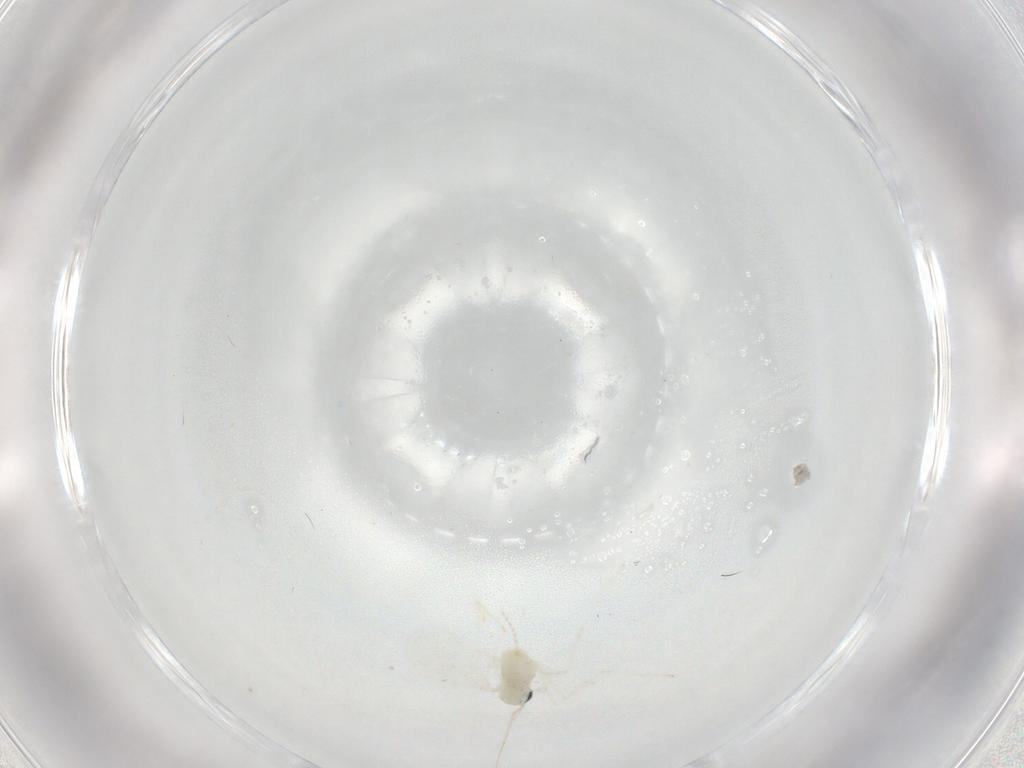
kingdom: Animalia
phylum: Arthropoda
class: Insecta
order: Diptera
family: Cecidomyiidae
